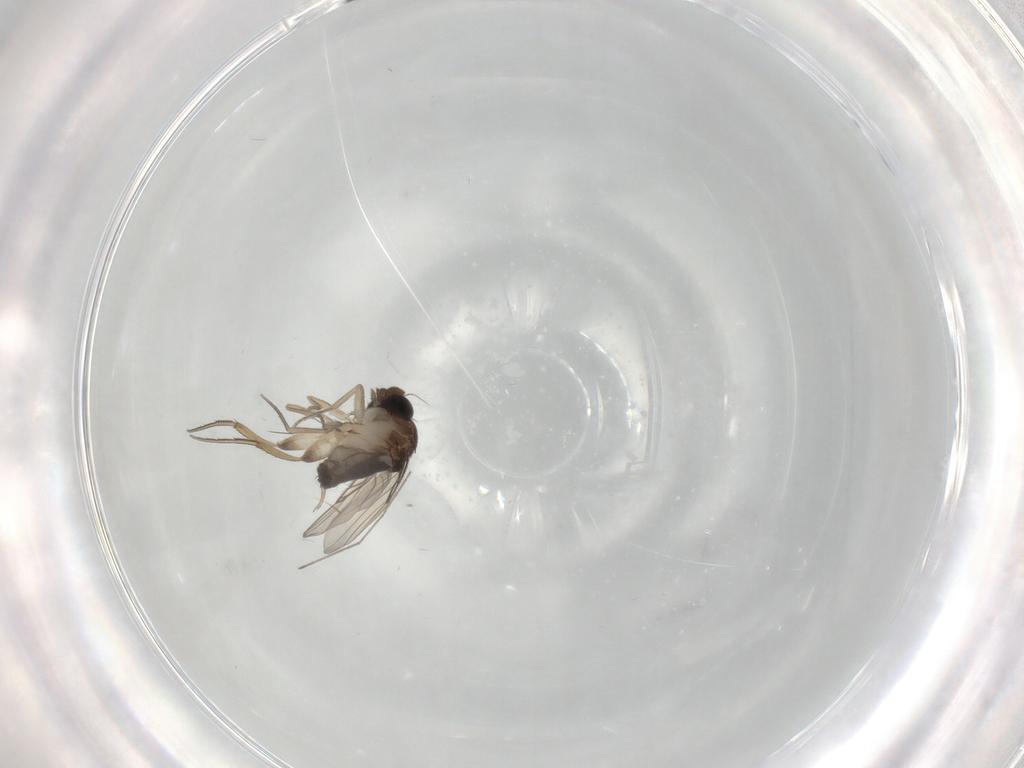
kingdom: Animalia
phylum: Arthropoda
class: Insecta
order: Diptera
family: Phoridae
